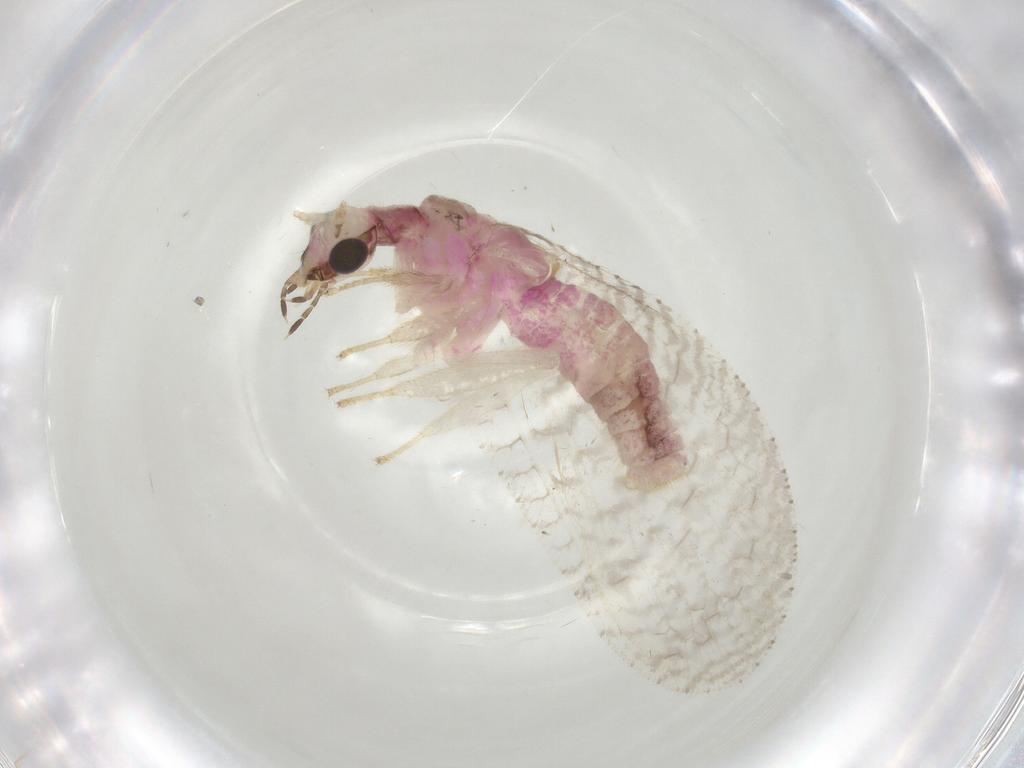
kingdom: Animalia
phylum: Arthropoda
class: Insecta
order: Neuroptera
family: Hemerobiidae
